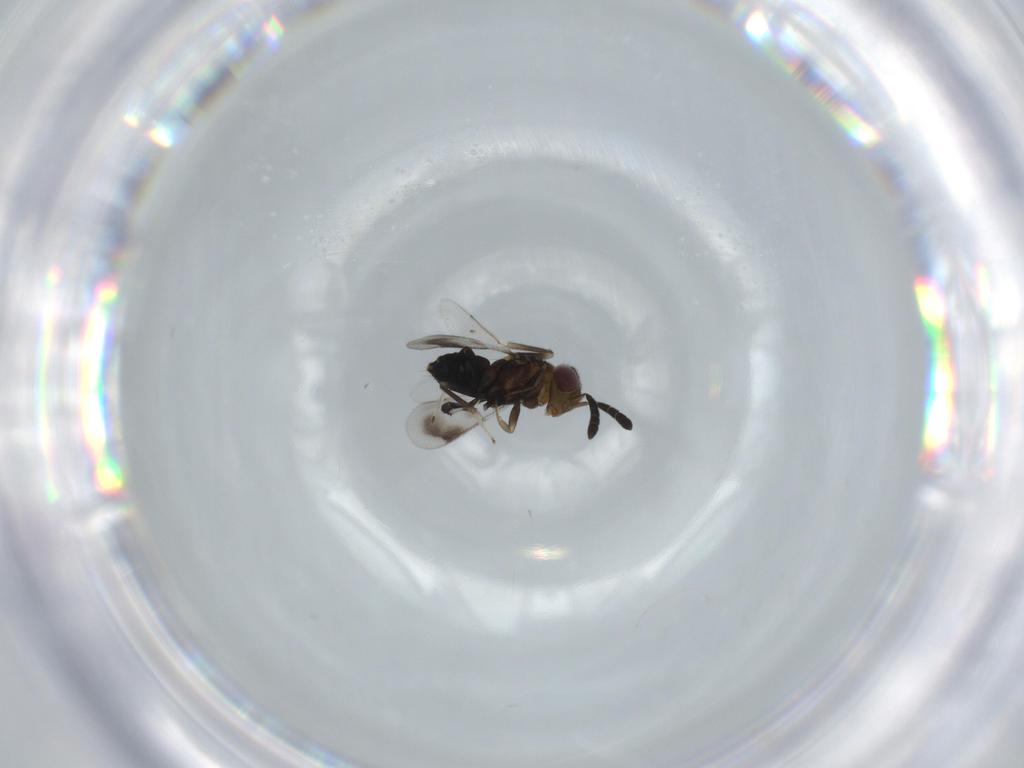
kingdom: Animalia
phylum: Arthropoda
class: Insecta
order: Hymenoptera
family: Aphelinidae
